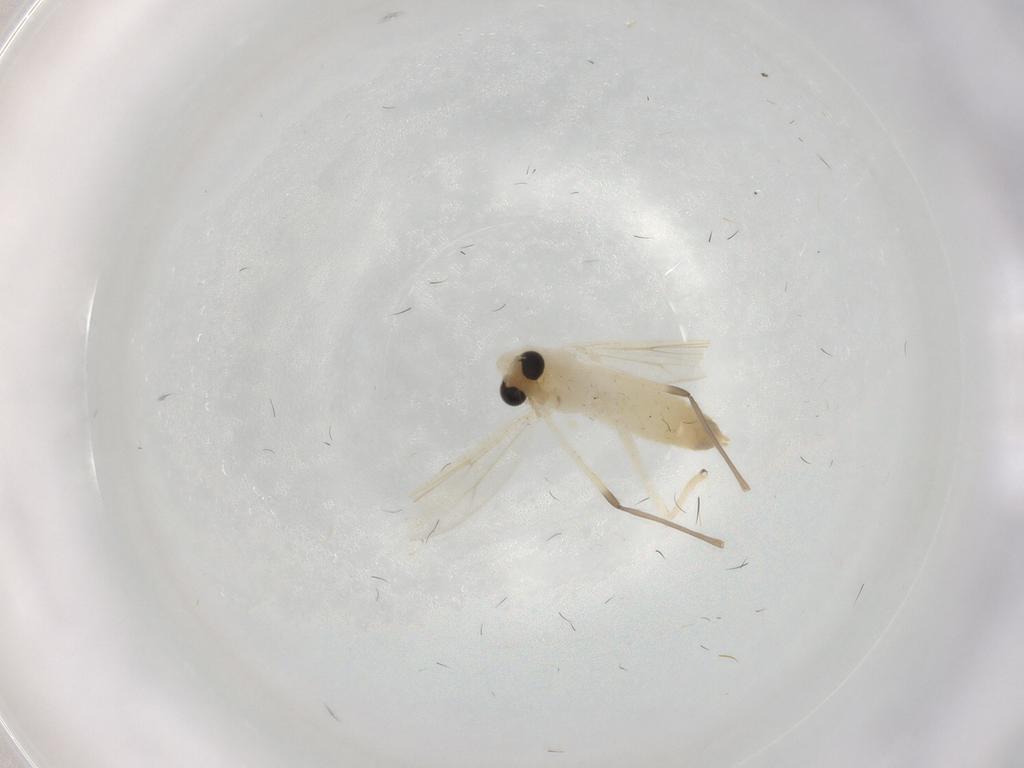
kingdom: Animalia
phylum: Arthropoda
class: Insecta
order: Diptera
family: Chironomidae
